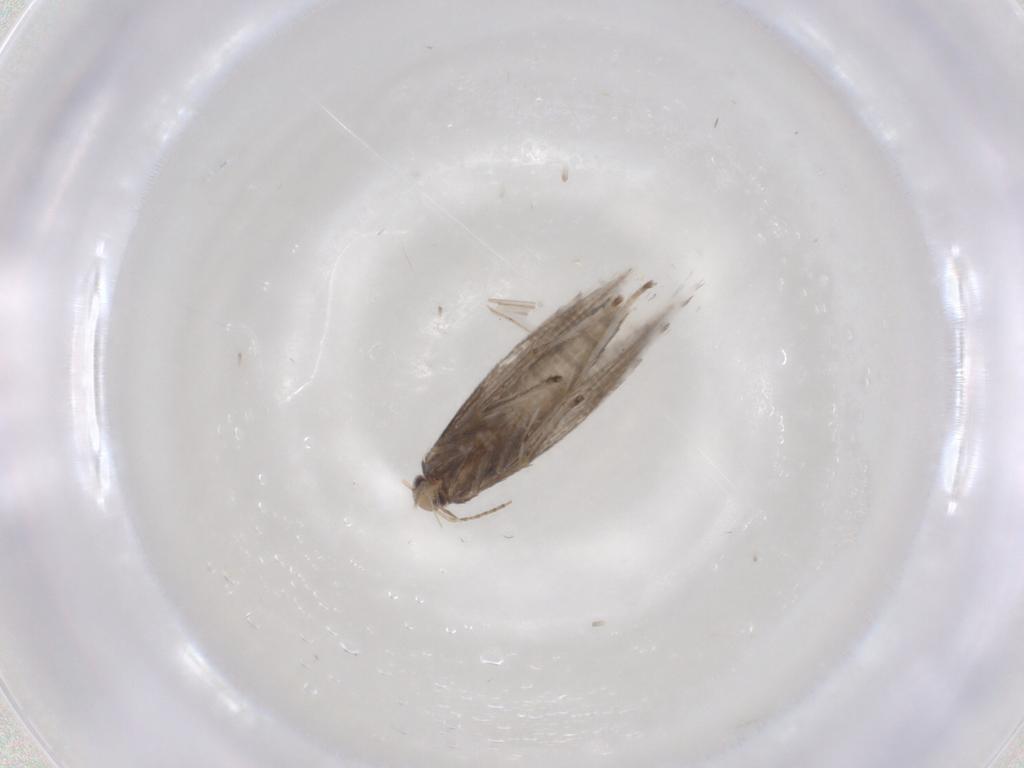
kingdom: Animalia
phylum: Arthropoda
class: Insecta
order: Lepidoptera
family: Gracillariidae
